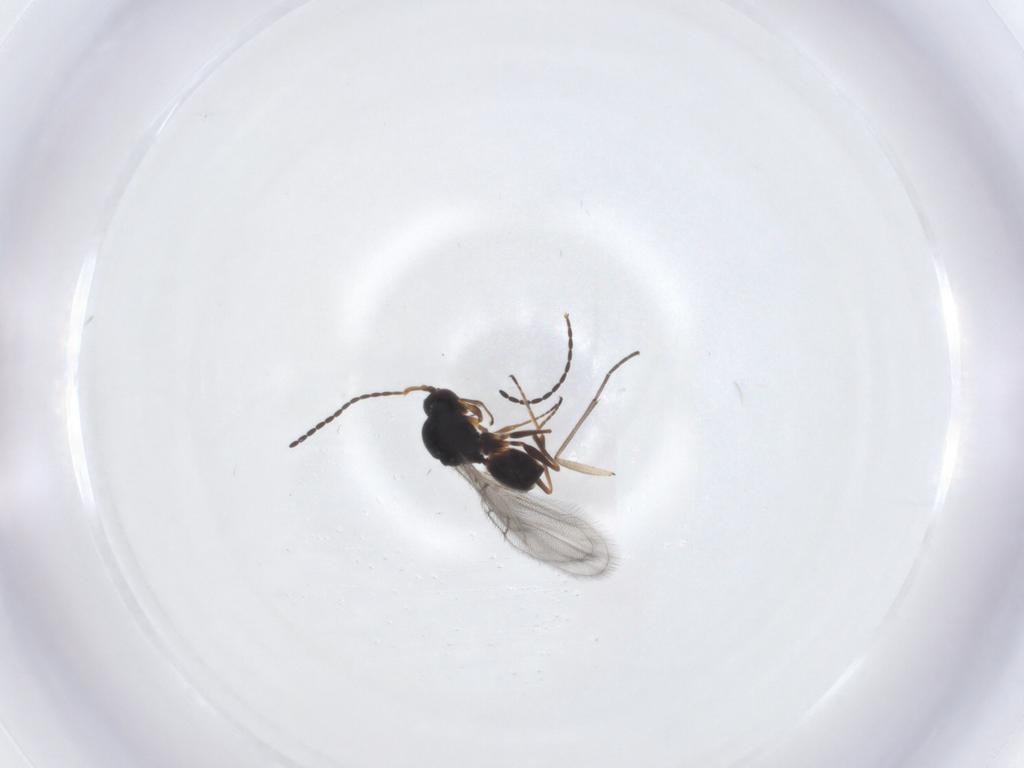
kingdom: Animalia
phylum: Arthropoda
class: Insecta
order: Hymenoptera
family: Figitidae
